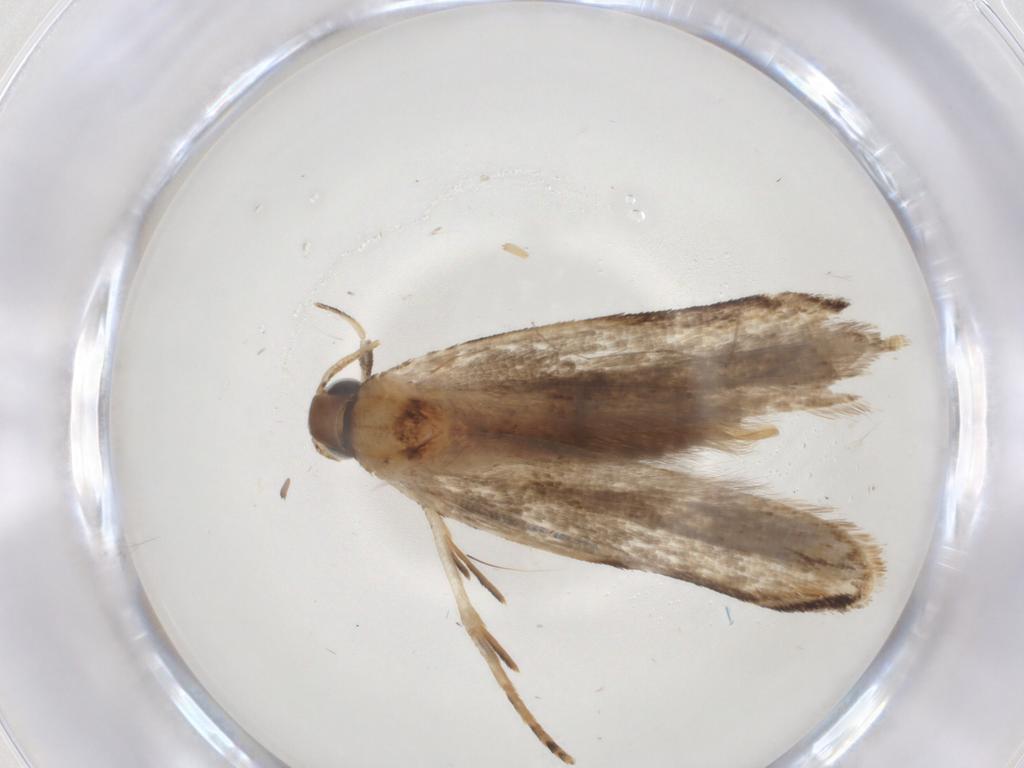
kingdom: Animalia
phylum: Arthropoda
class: Insecta
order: Lepidoptera
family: Gelechiidae
